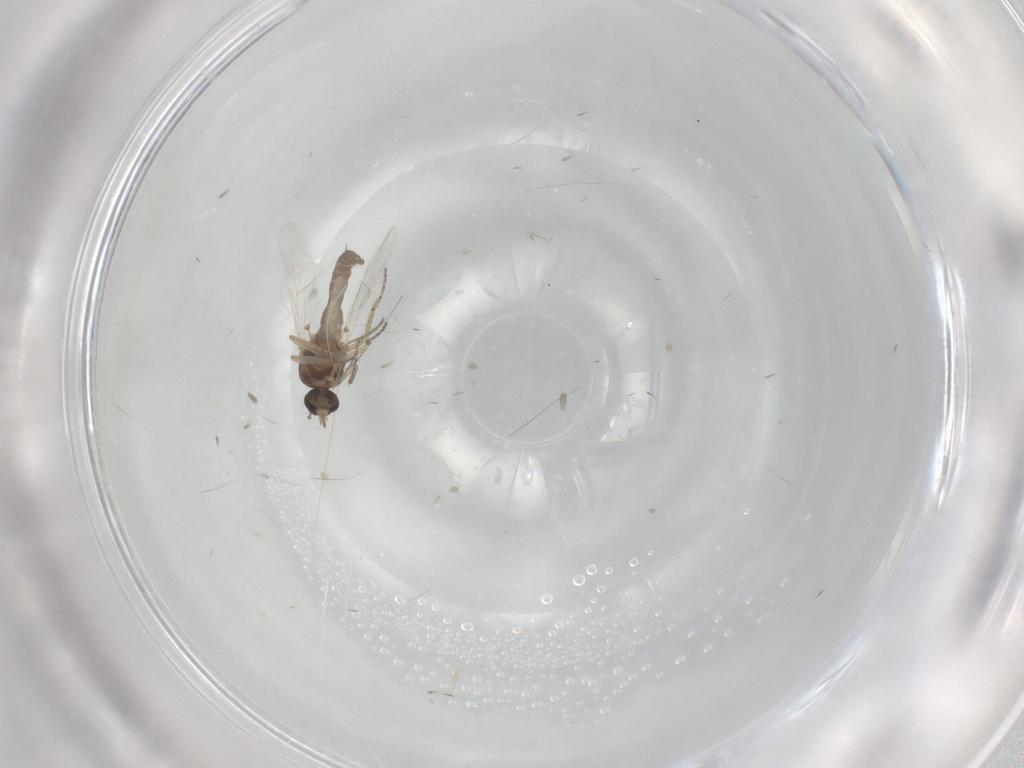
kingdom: Animalia
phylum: Arthropoda
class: Insecta
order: Diptera
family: Ceratopogonidae
